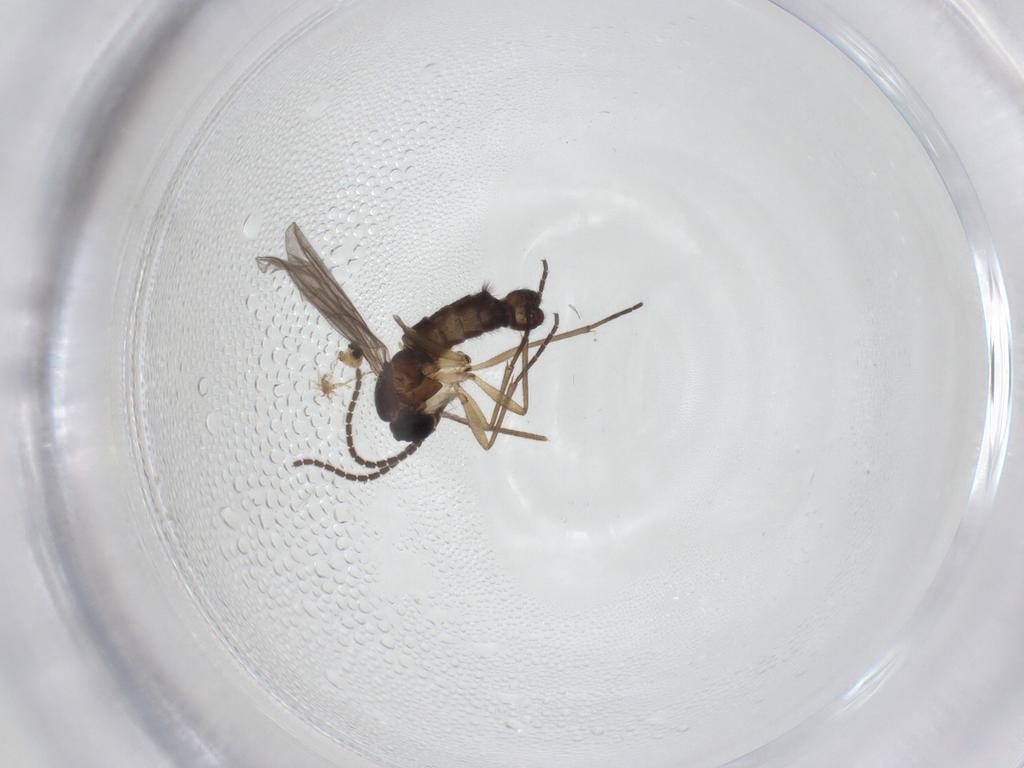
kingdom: Animalia
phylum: Arthropoda
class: Insecta
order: Diptera
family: Sciaridae
